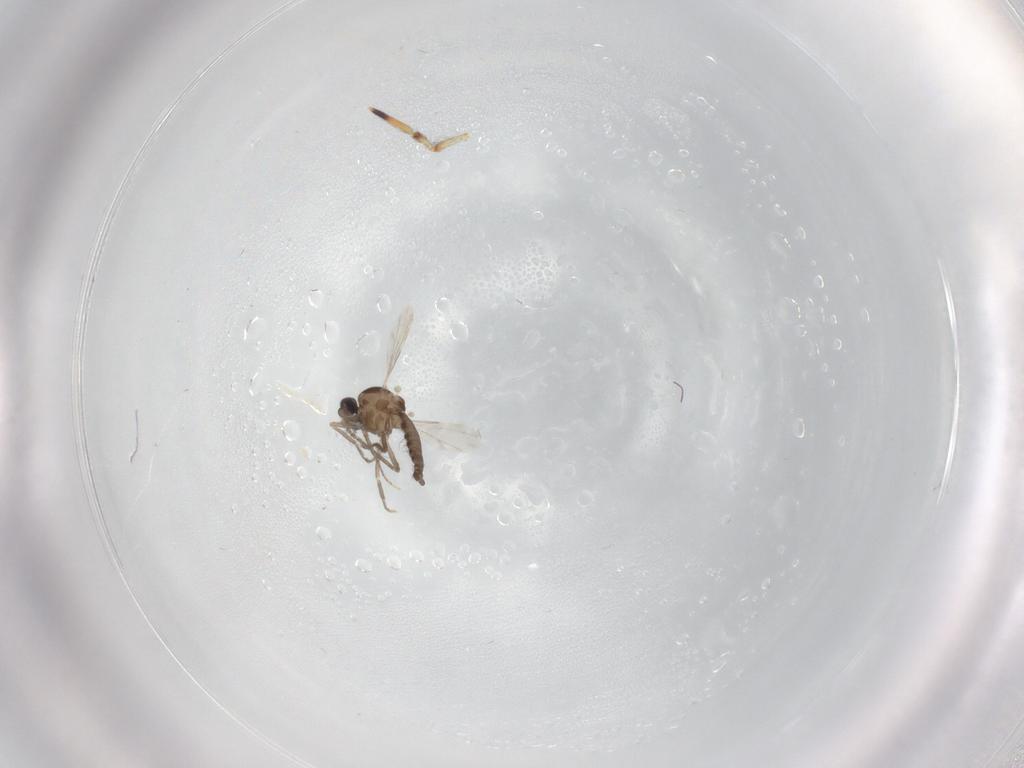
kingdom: Animalia
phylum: Arthropoda
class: Insecta
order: Diptera
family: Ceratopogonidae
